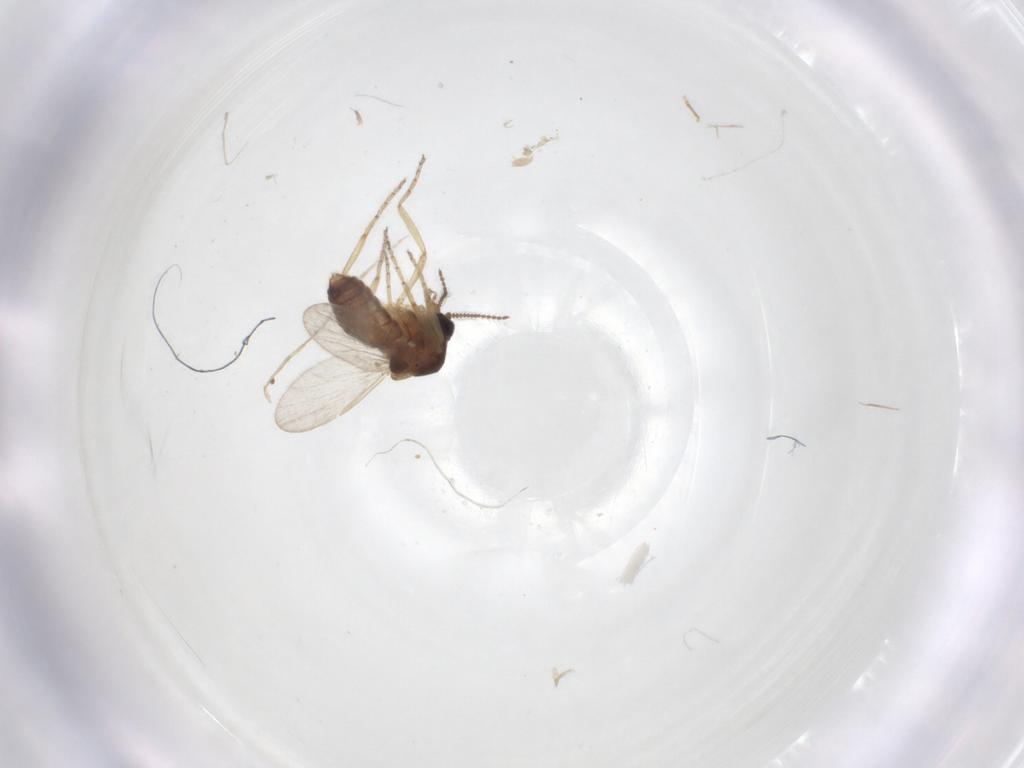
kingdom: Animalia
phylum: Arthropoda
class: Insecta
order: Diptera
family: Ceratopogonidae
